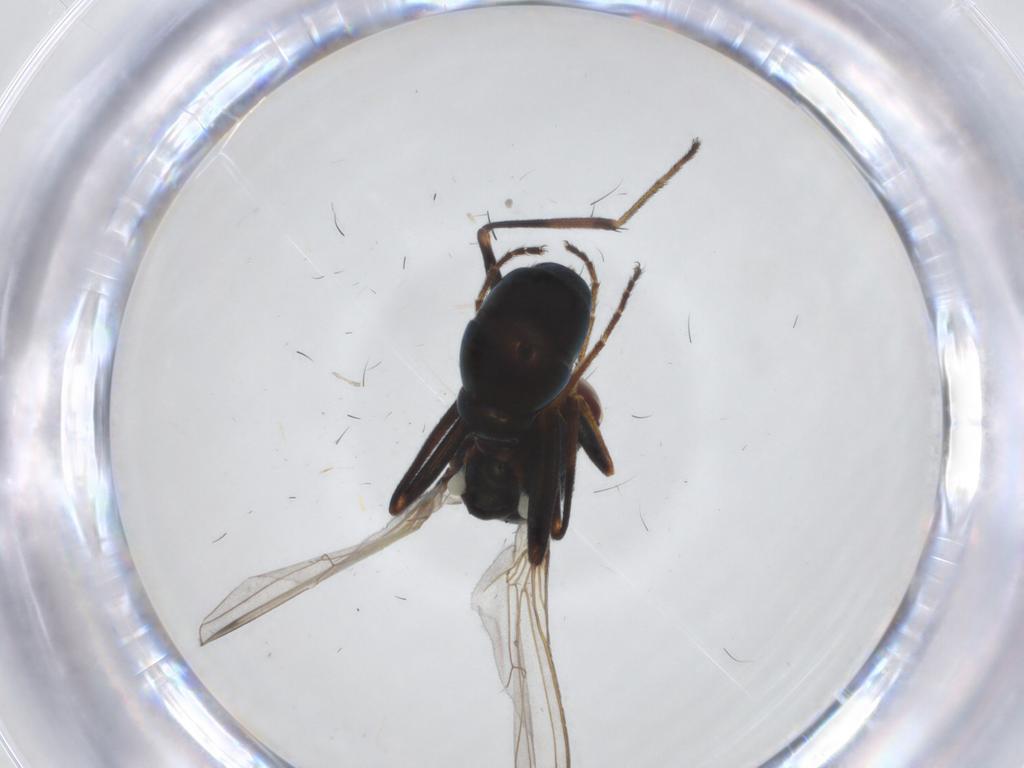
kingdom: Animalia
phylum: Arthropoda
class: Insecta
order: Diptera
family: Sepsidae
